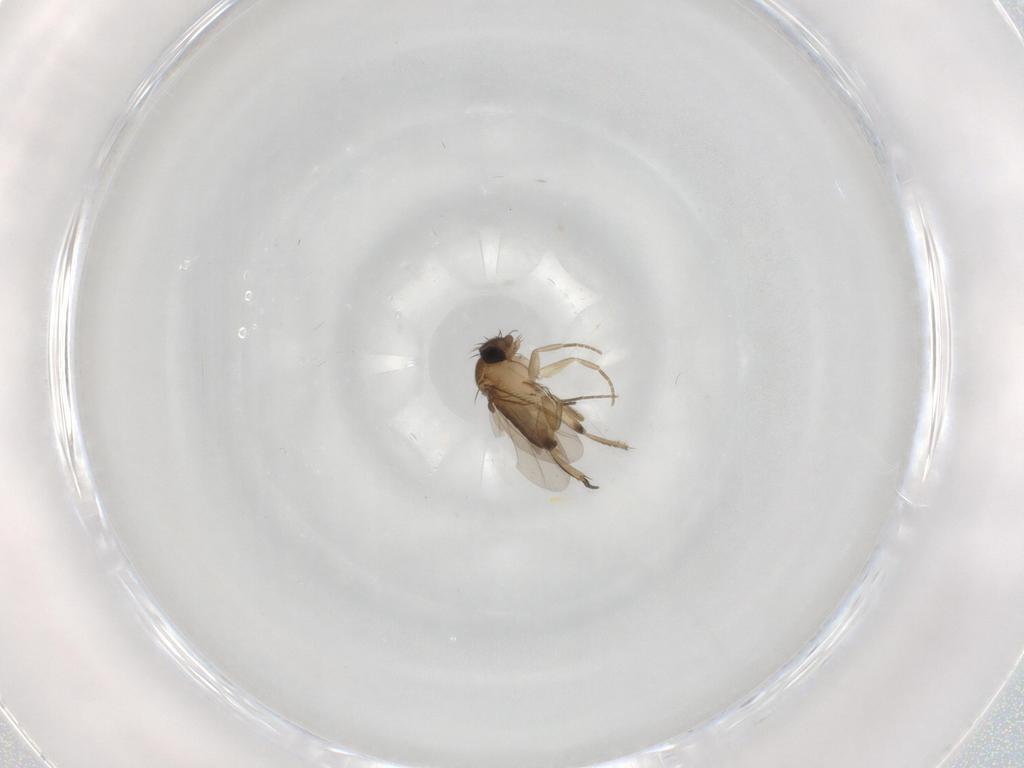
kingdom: Animalia
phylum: Arthropoda
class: Insecta
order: Diptera
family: Phoridae
